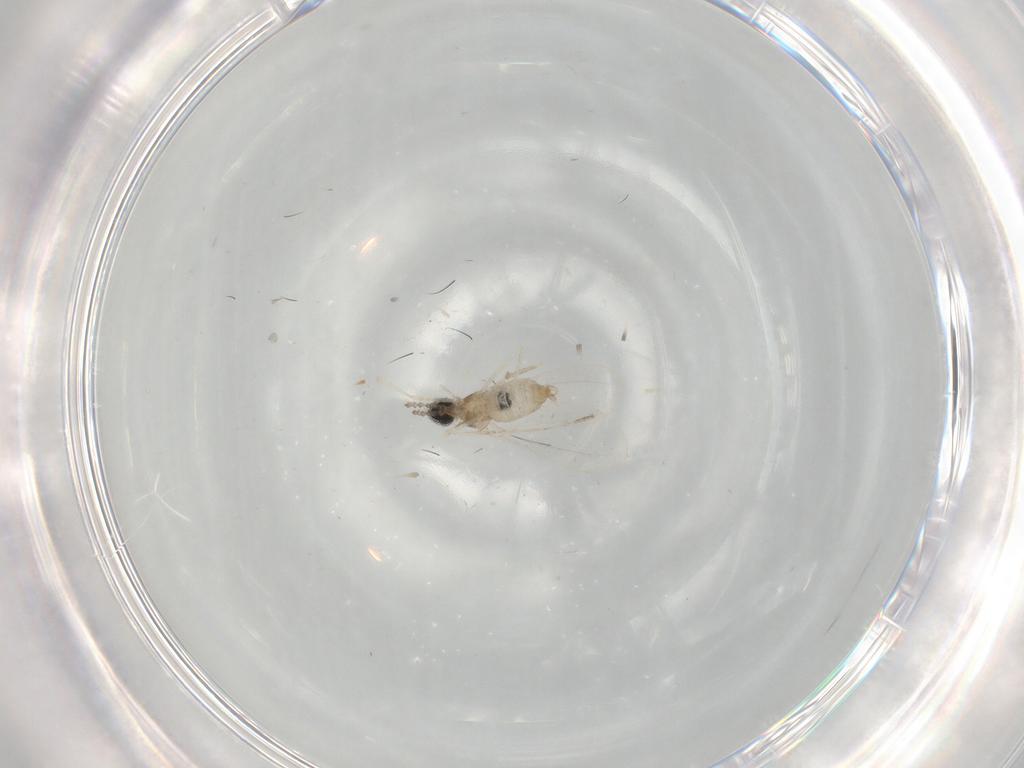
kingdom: Animalia
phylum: Arthropoda
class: Insecta
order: Diptera
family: Cecidomyiidae
